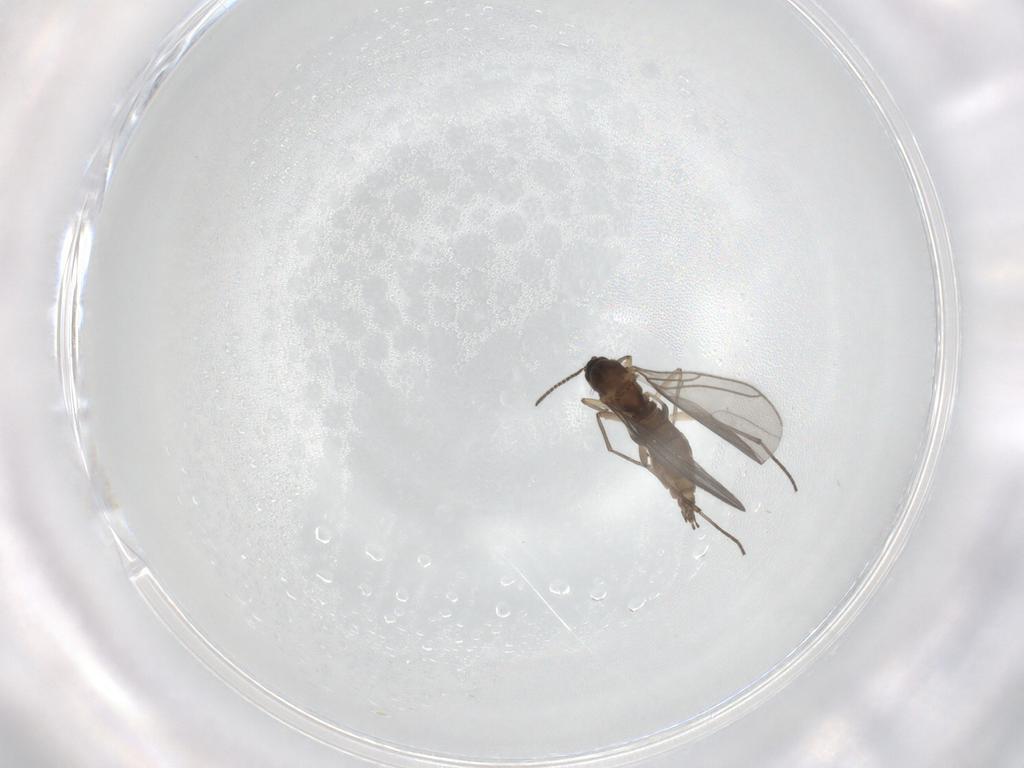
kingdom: Animalia
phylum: Arthropoda
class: Insecta
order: Diptera
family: Sciaridae
